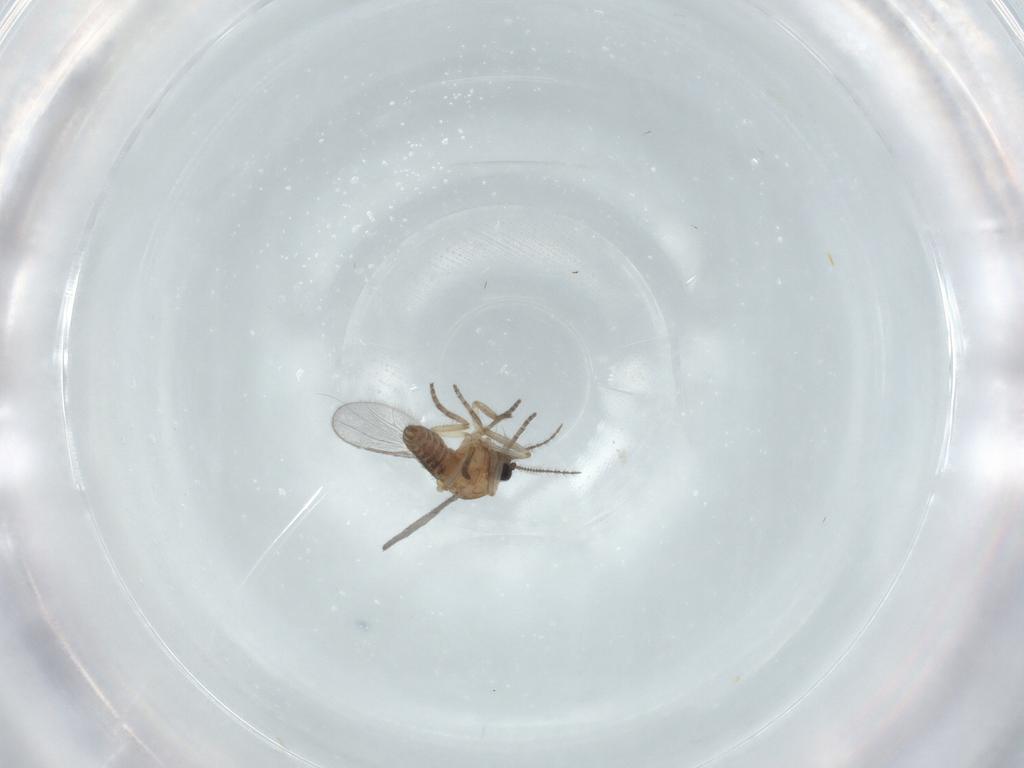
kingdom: Animalia
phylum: Arthropoda
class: Insecta
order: Diptera
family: Ceratopogonidae
